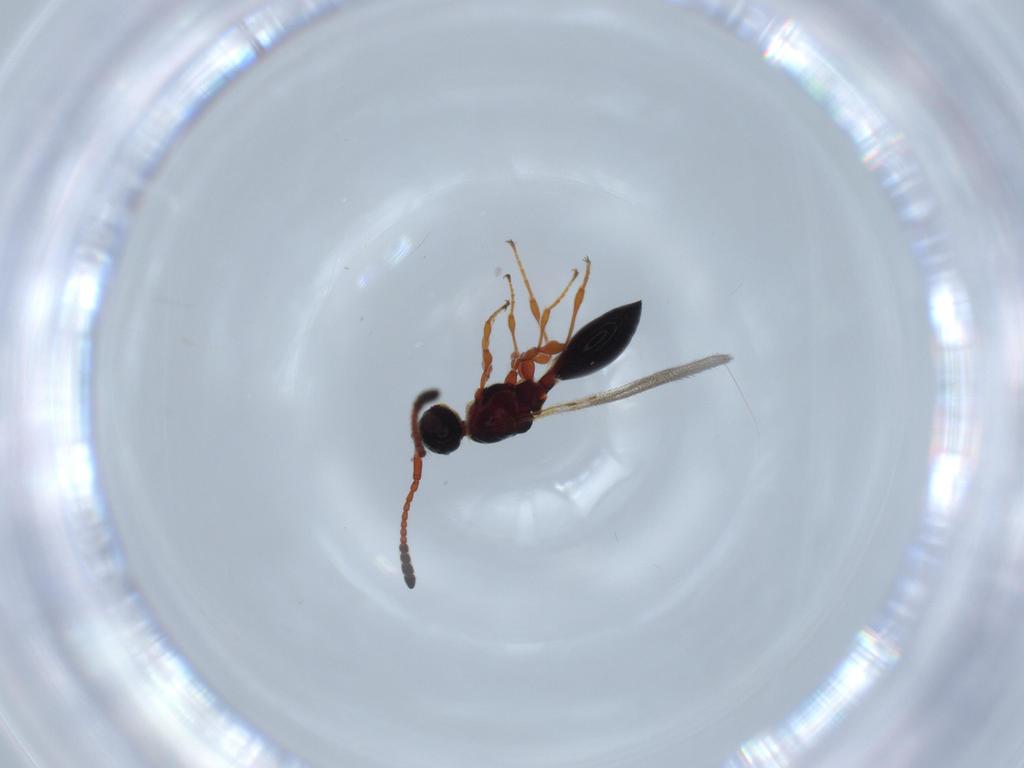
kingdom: Animalia
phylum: Arthropoda
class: Insecta
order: Hymenoptera
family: Diapriidae
